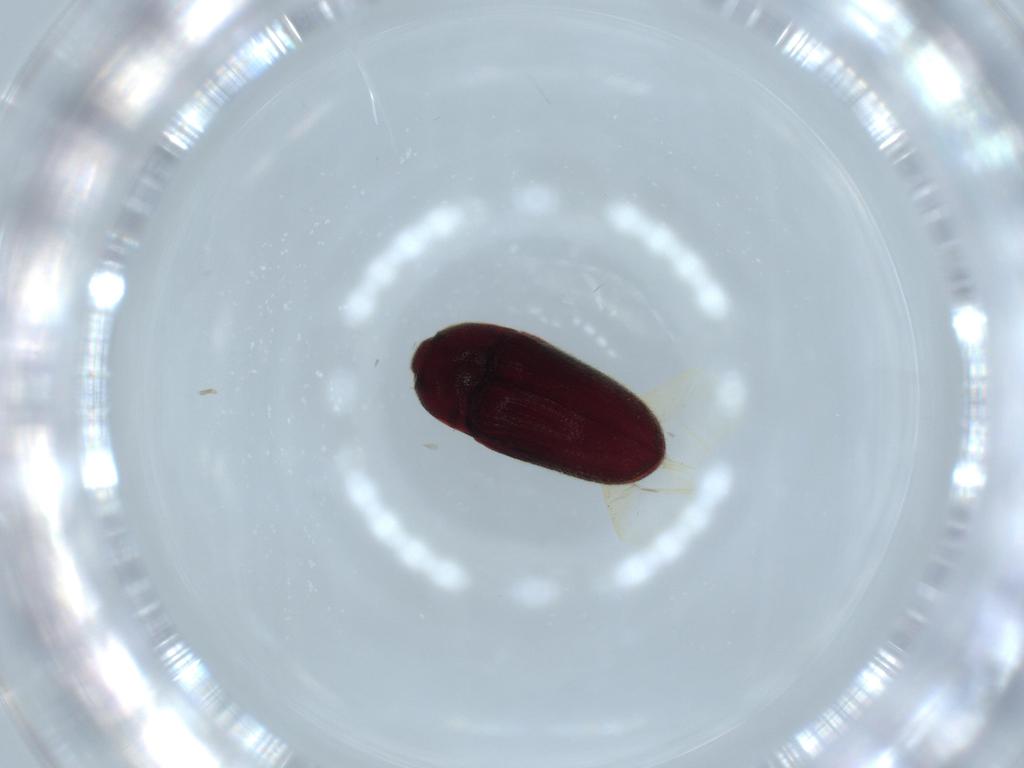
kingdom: Animalia
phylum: Arthropoda
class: Insecta
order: Coleoptera
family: Throscidae
